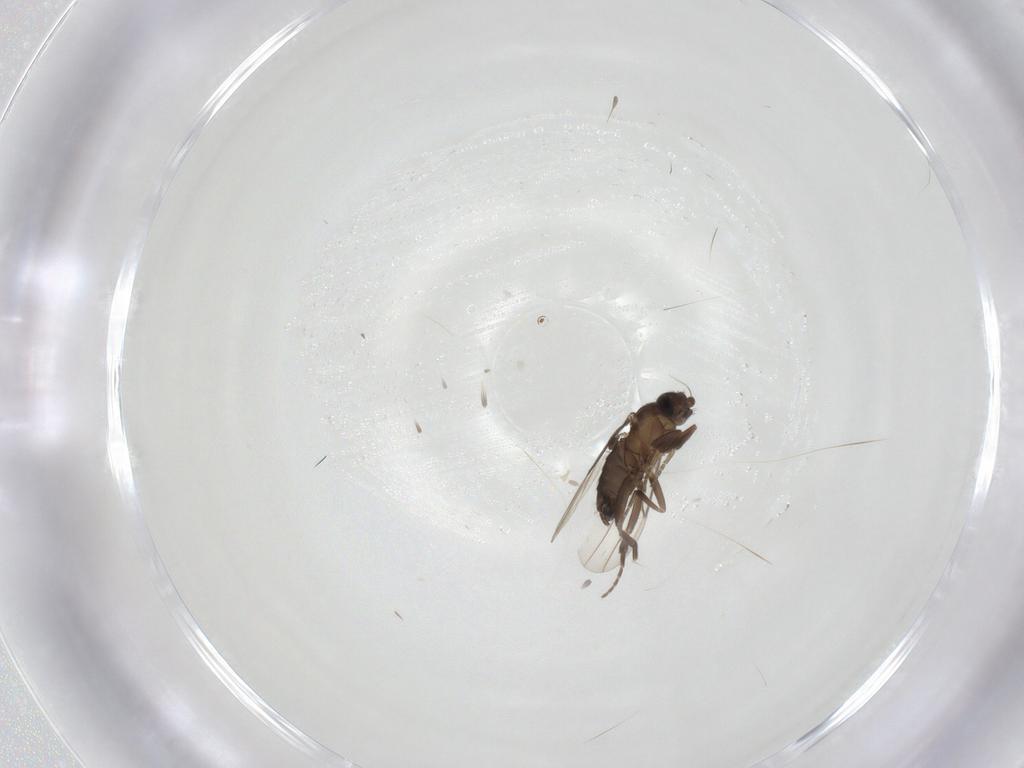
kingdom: Animalia
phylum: Arthropoda
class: Insecta
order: Diptera
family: Phoridae
